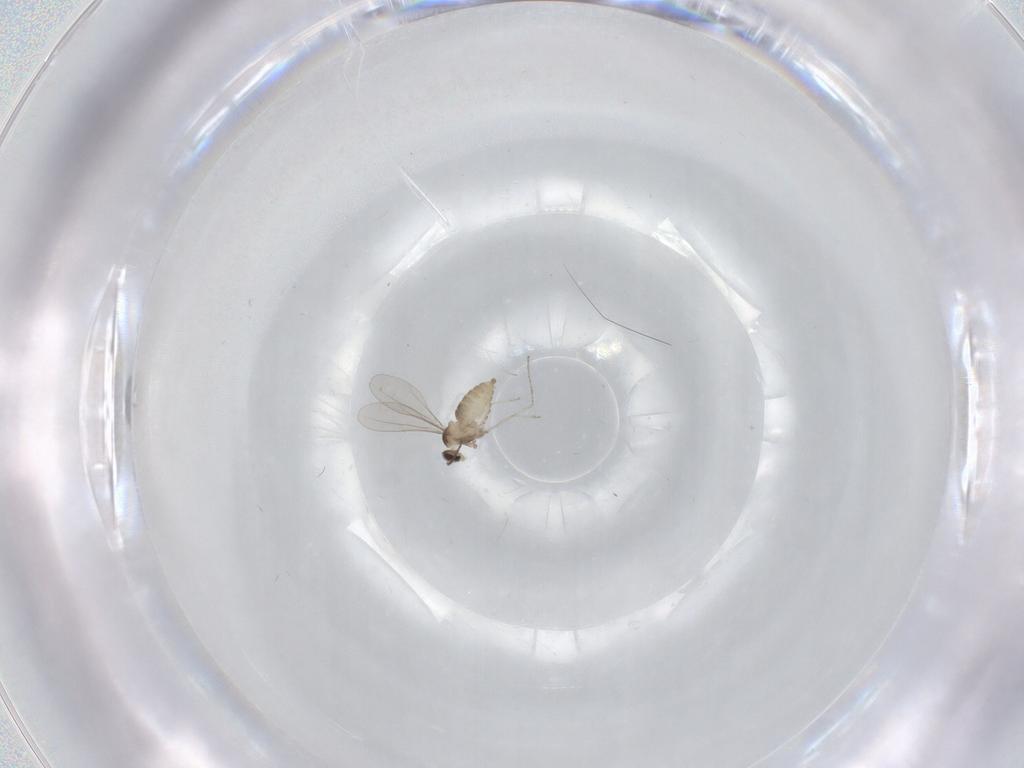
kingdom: Animalia
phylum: Arthropoda
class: Insecta
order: Diptera
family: Cecidomyiidae
